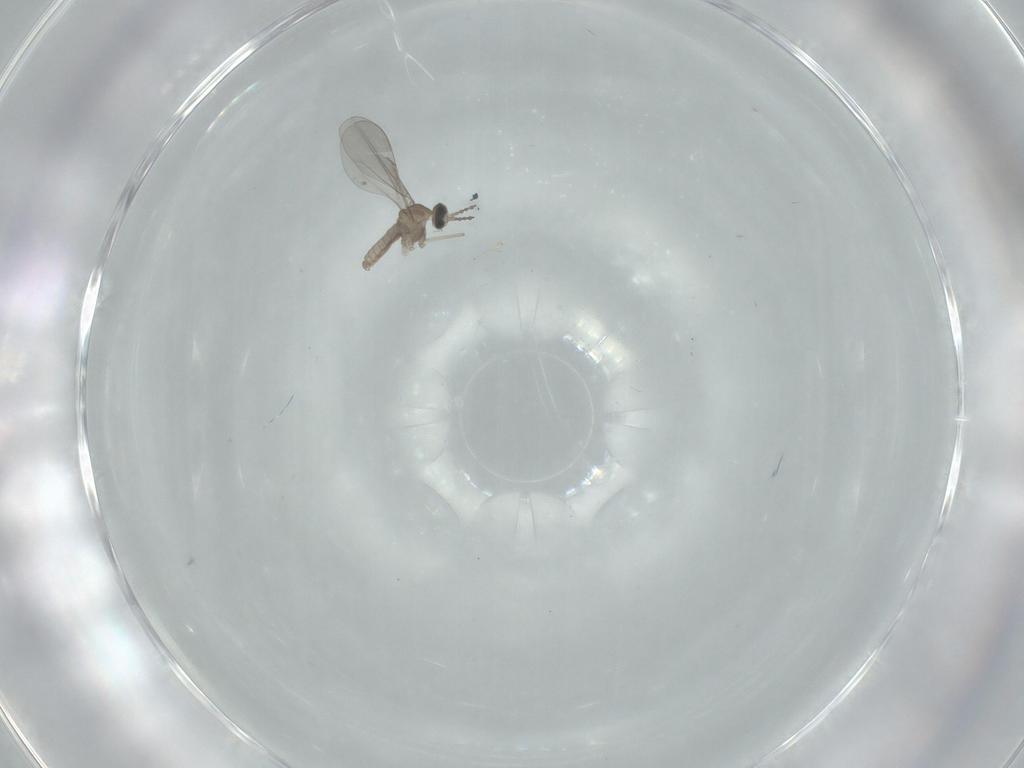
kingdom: Animalia
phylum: Arthropoda
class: Insecta
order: Diptera
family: Cecidomyiidae
